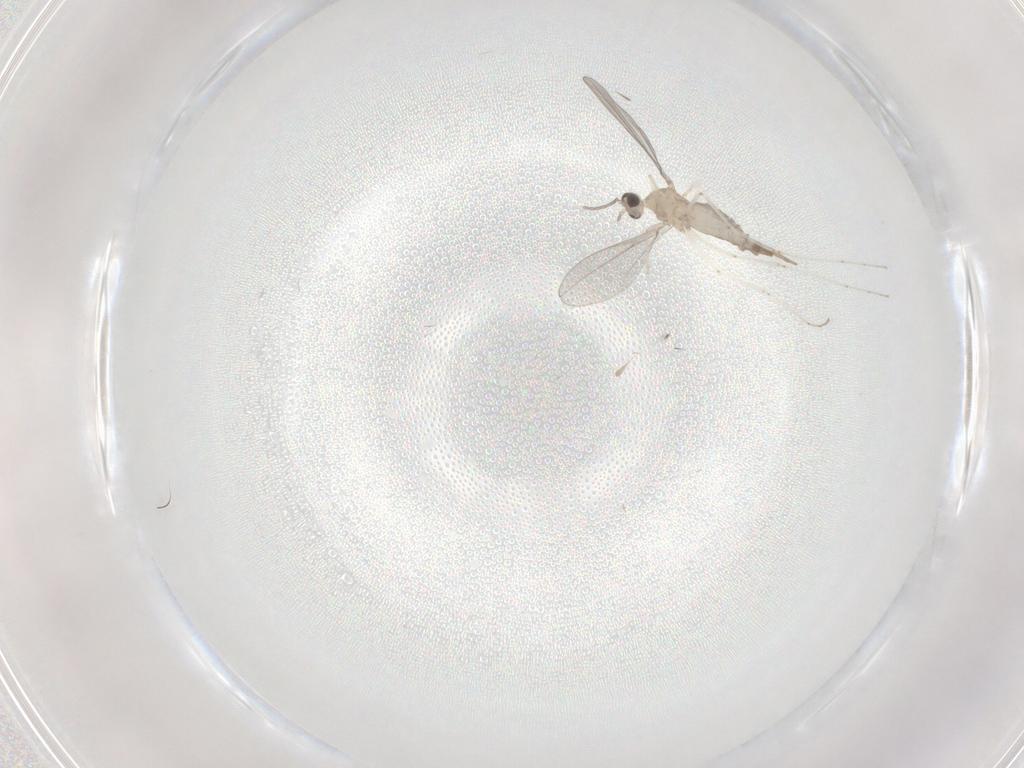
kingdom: Animalia
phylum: Arthropoda
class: Insecta
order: Diptera
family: Cecidomyiidae
